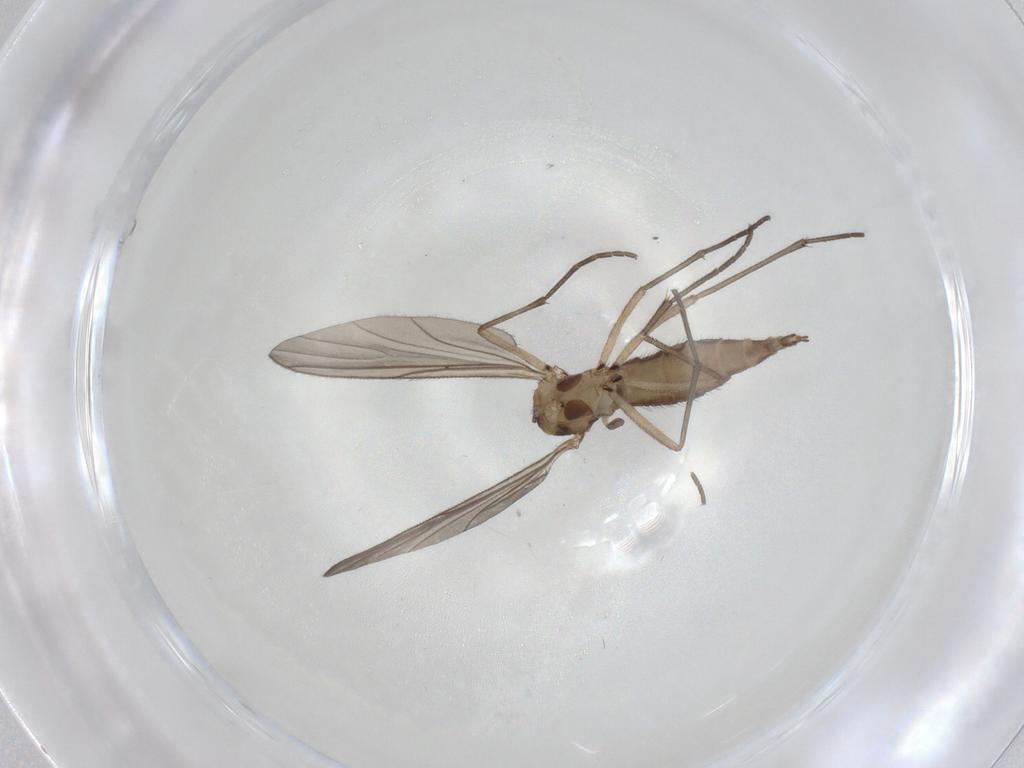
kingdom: Animalia
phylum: Arthropoda
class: Insecta
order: Diptera
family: Sciaridae
